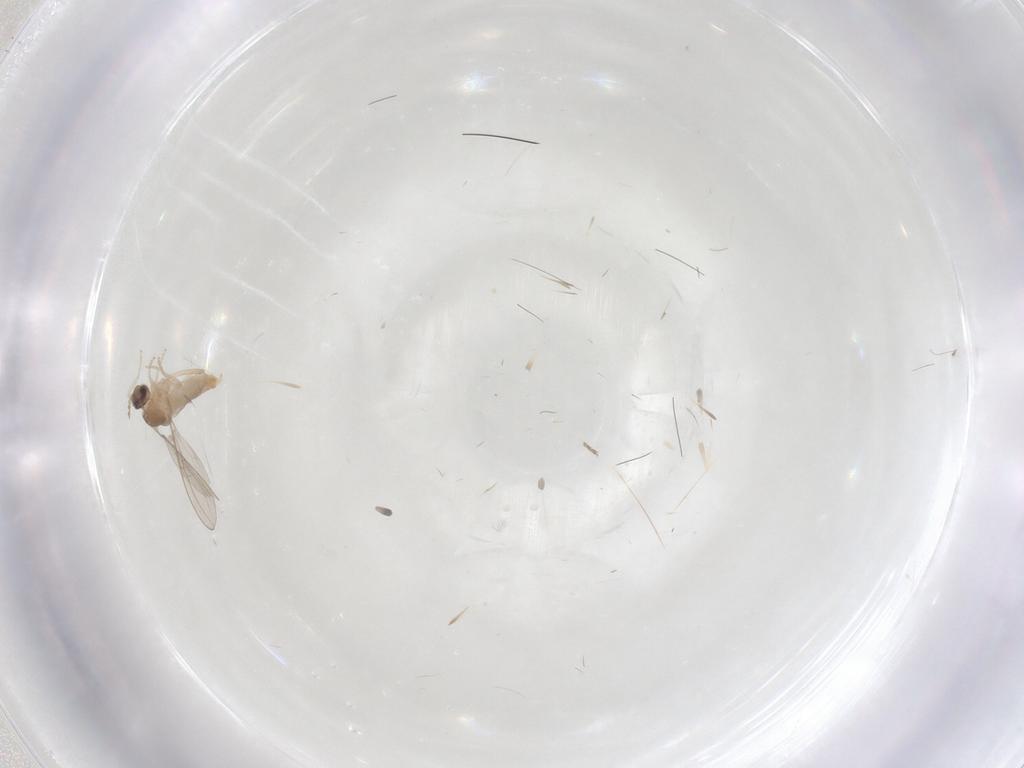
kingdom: Animalia
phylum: Arthropoda
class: Insecta
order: Diptera
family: Cecidomyiidae
